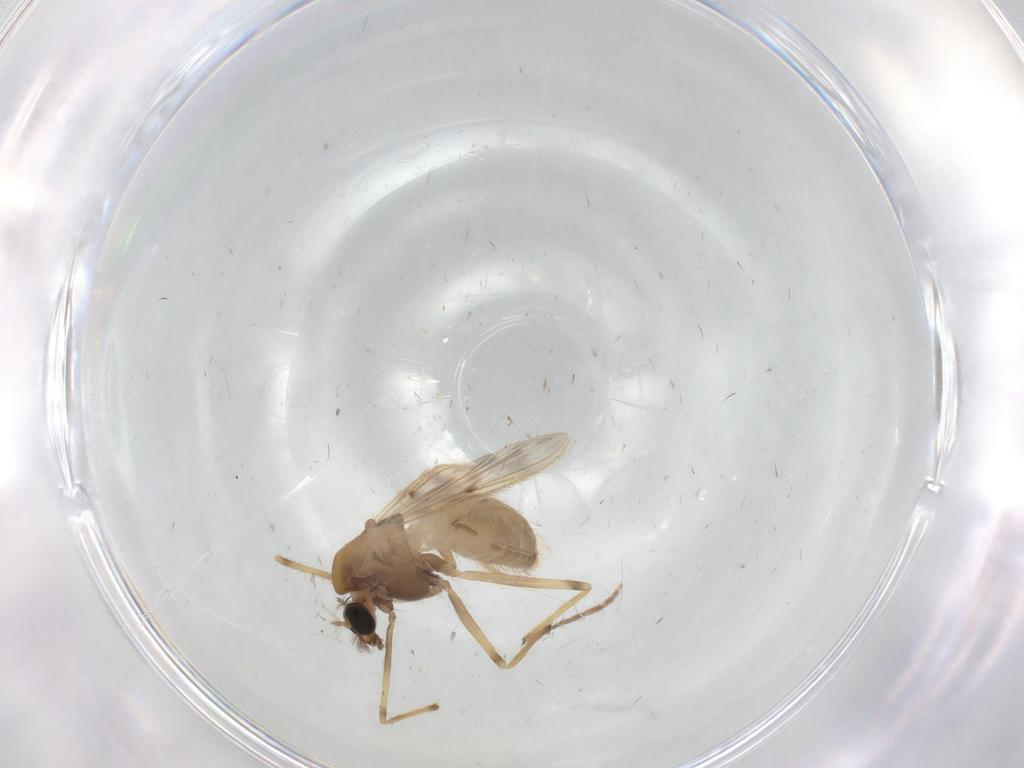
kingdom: Animalia
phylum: Arthropoda
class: Insecta
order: Diptera
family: Chironomidae
